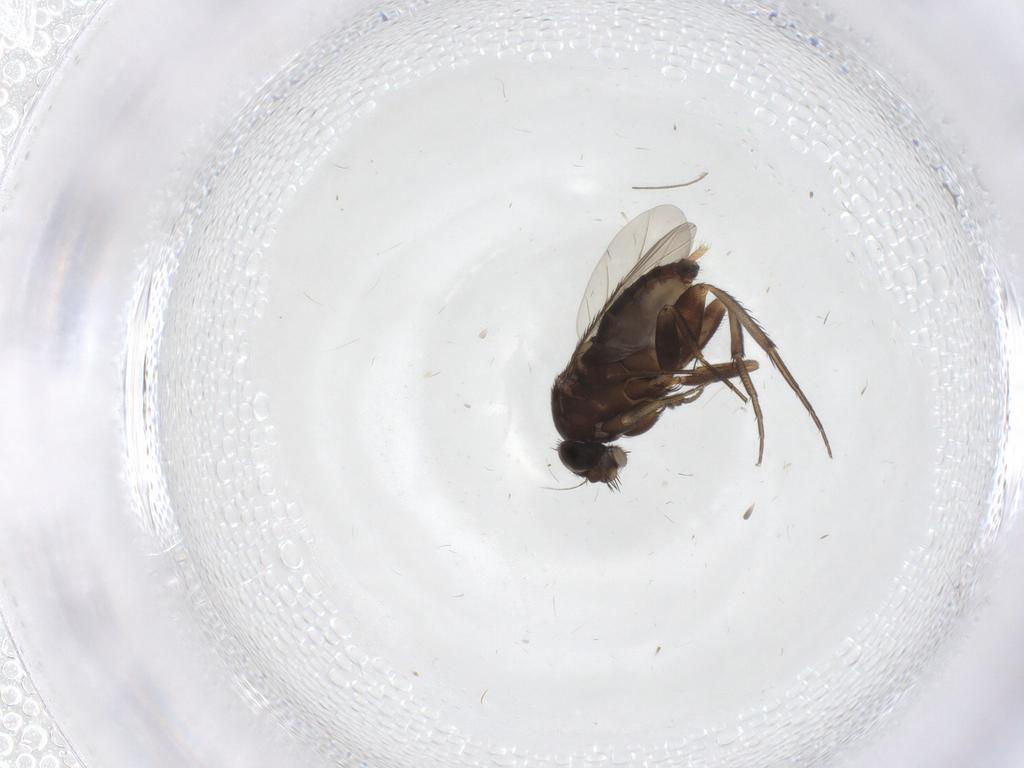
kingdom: Animalia
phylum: Arthropoda
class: Insecta
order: Diptera
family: Phoridae
